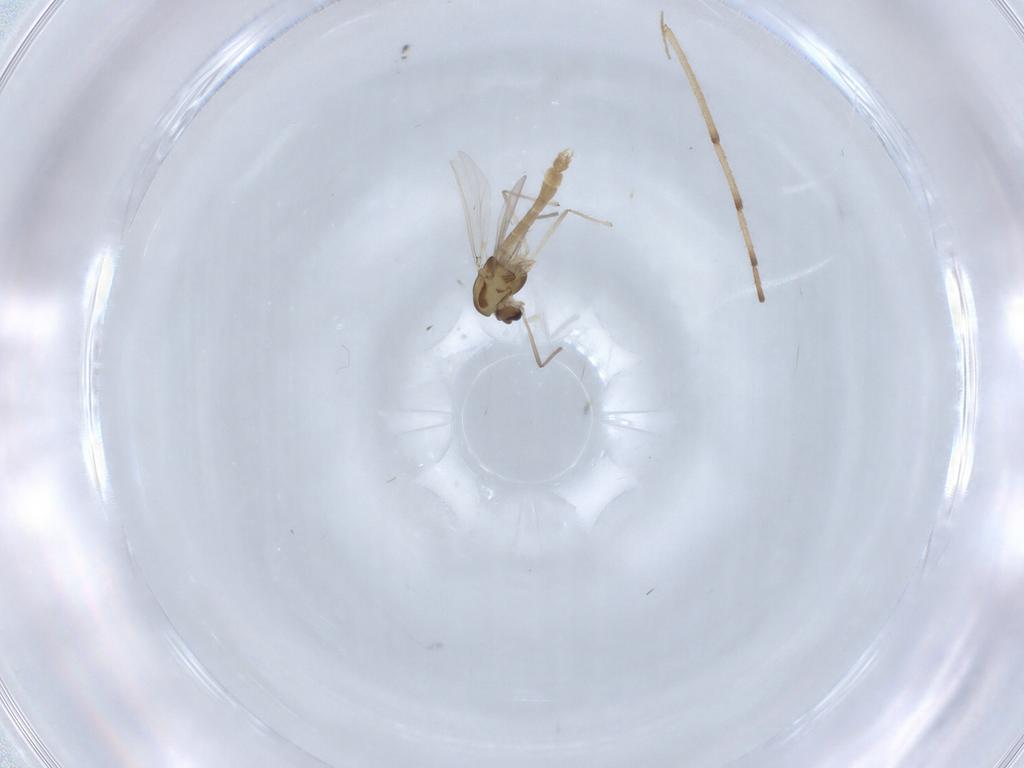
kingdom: Animalia
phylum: Arthropoda
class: Insecta
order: Diptera
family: Chironomidae
